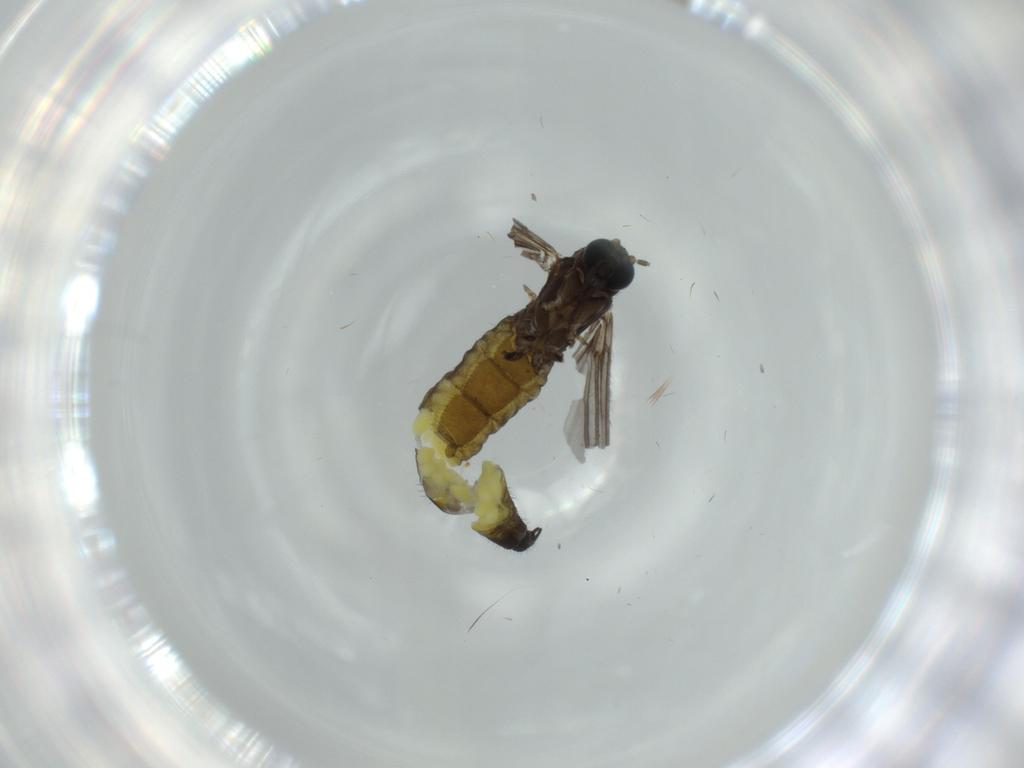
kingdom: Animalia
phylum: Arthropoda
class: Insecta
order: Diptera
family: Sciaridae
